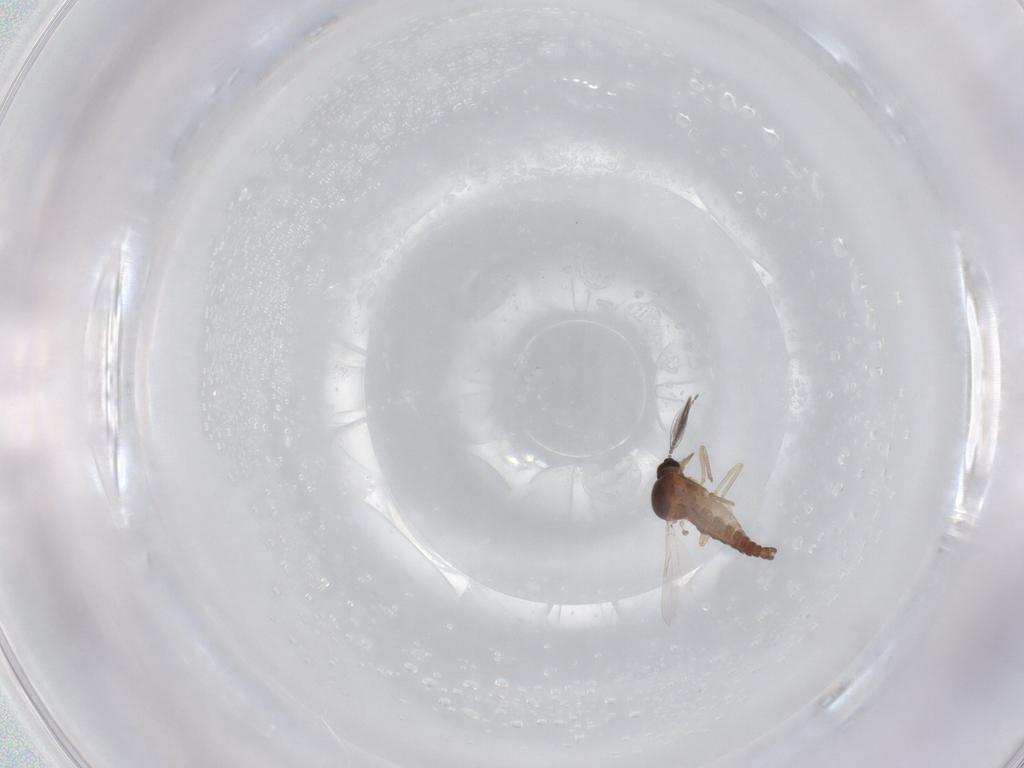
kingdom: Animalia
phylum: Arthropoda
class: Insecta
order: Diptera
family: Ceratopogonidae
